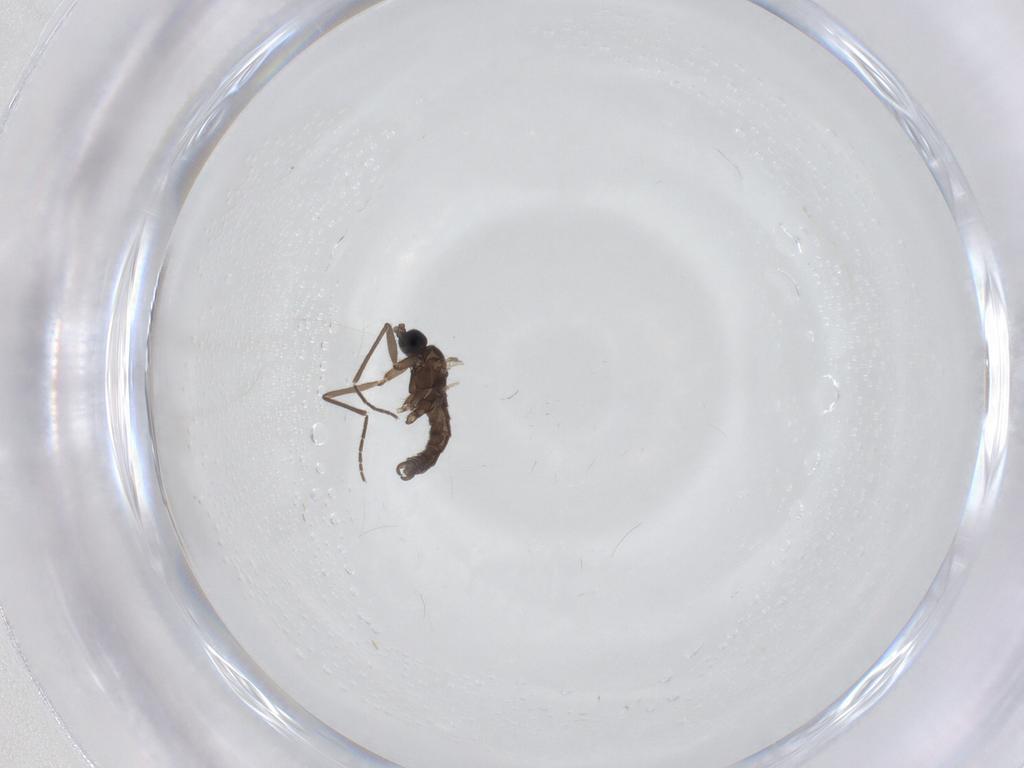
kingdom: Animalia
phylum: Arthropoda
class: Insecta
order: Diptera
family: Sciaridae
